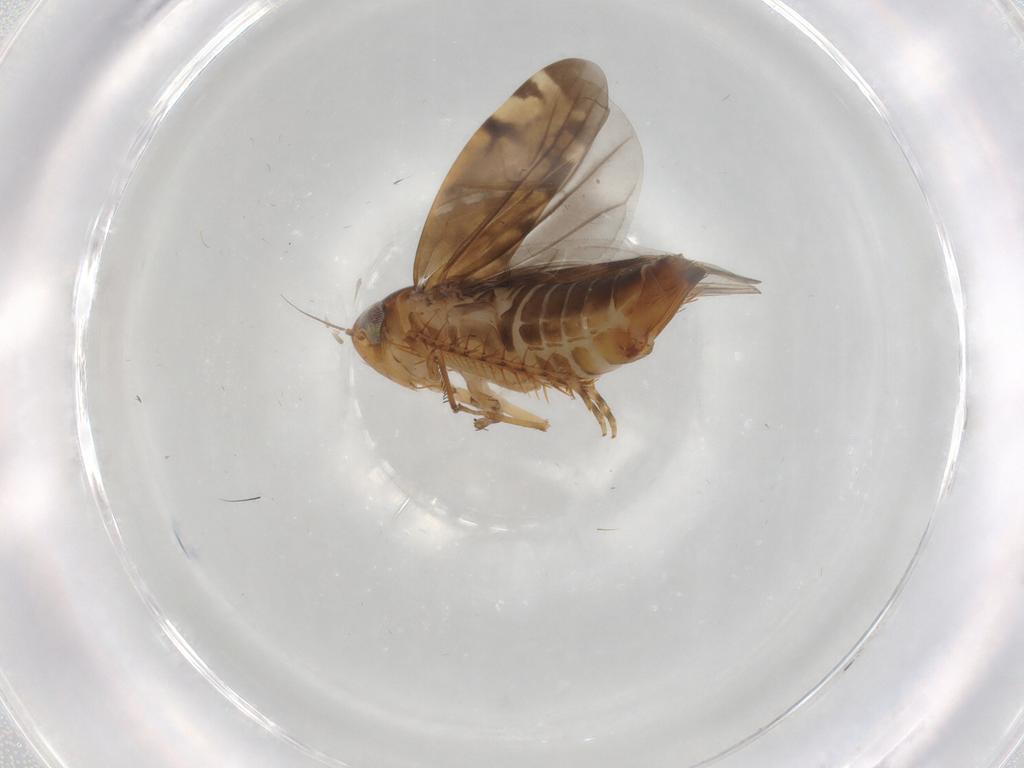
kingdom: Animalia
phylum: Arthropoda
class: Insecta
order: Hemiptera
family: Cicadellidae
